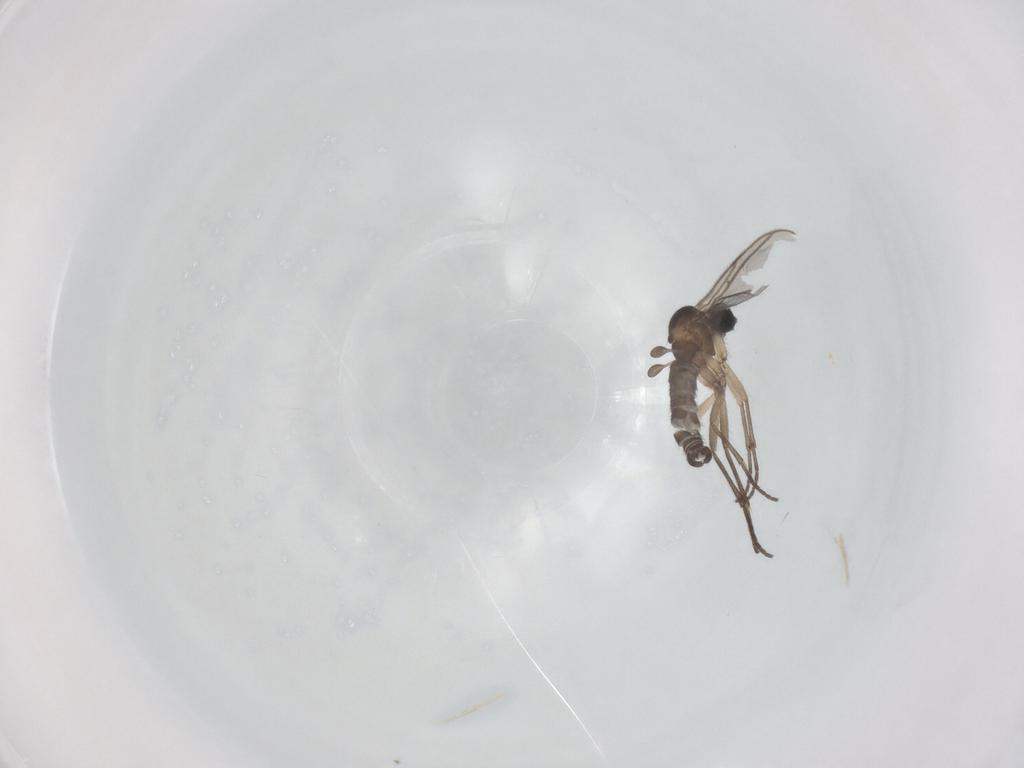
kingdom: Animalia
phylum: Arthropoda
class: Insecta
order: Diptera
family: Sciaridae
